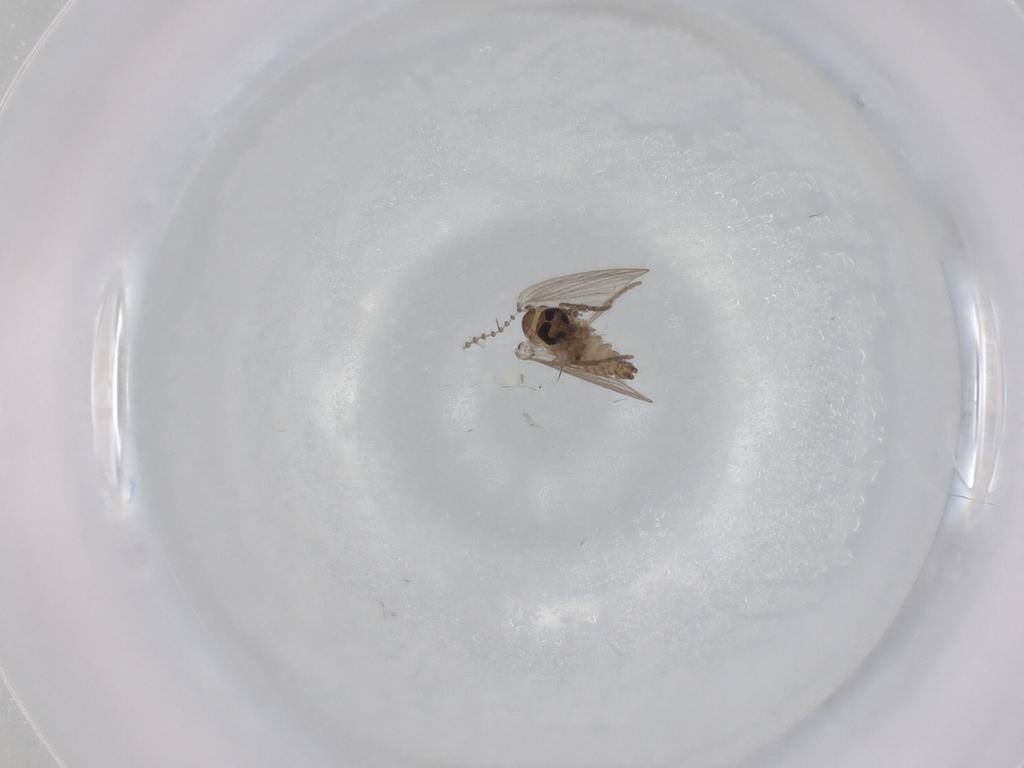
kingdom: Animalia
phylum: Arthropoda
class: Insecta
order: Diptera
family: Psychodidae
